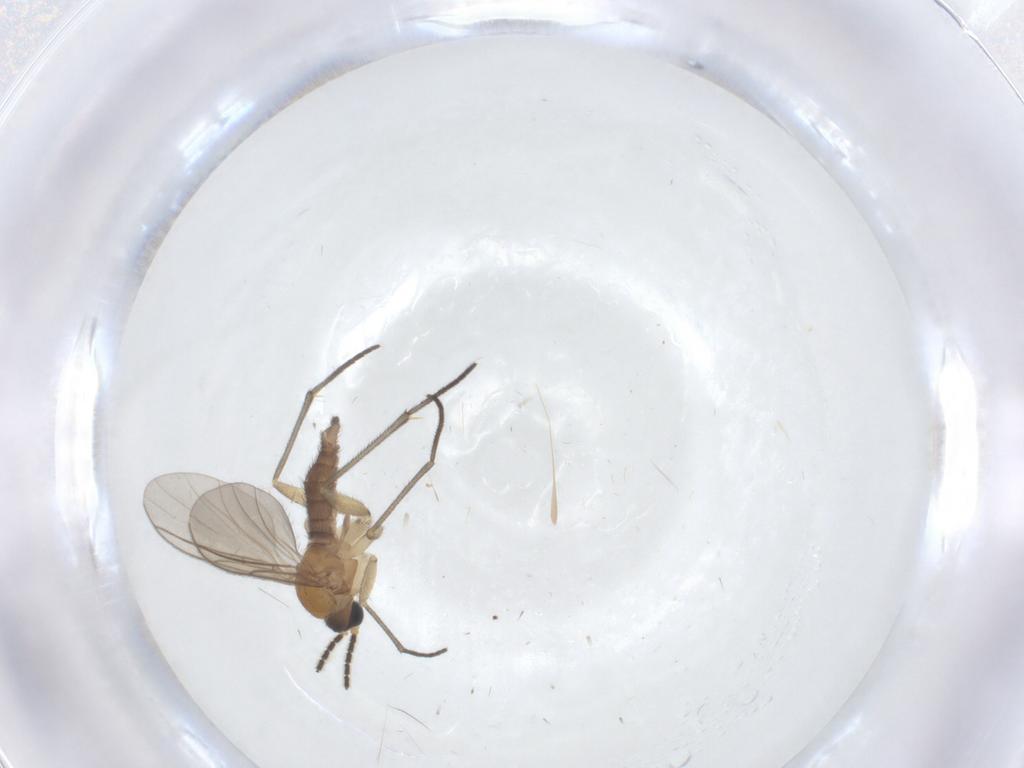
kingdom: Animalia
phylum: Arthropoda
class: Insecta
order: Diptera
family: Sciaridae
